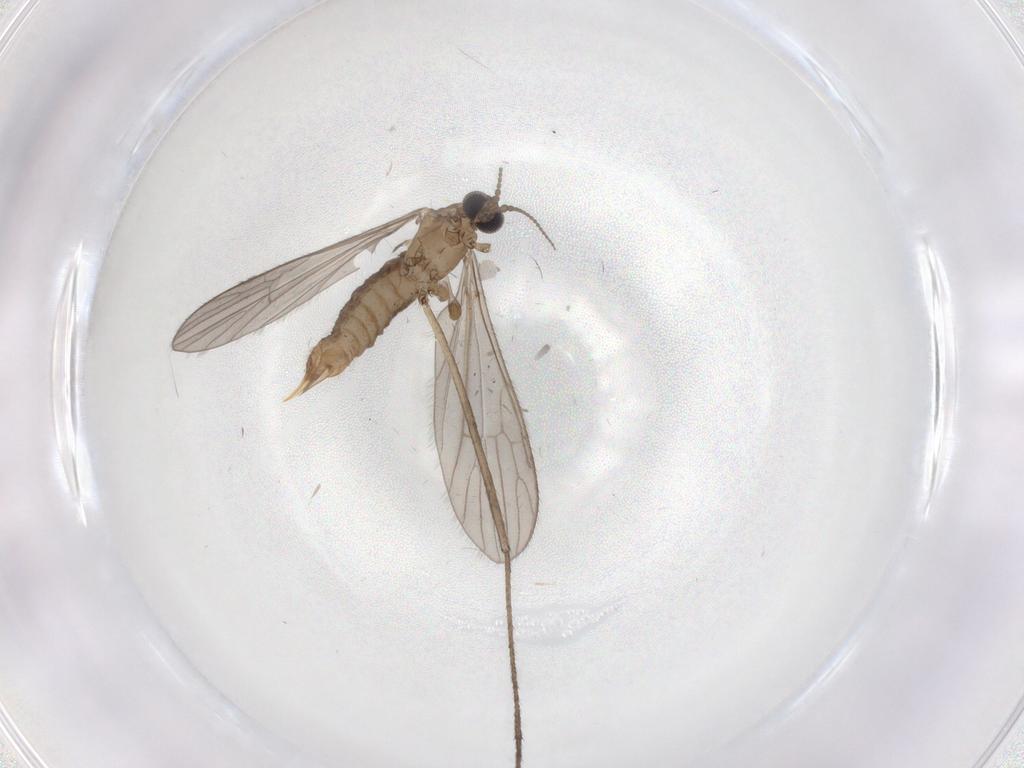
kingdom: Animalia
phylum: Arthropoda
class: Insecta
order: Diptera
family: Limoniidae
